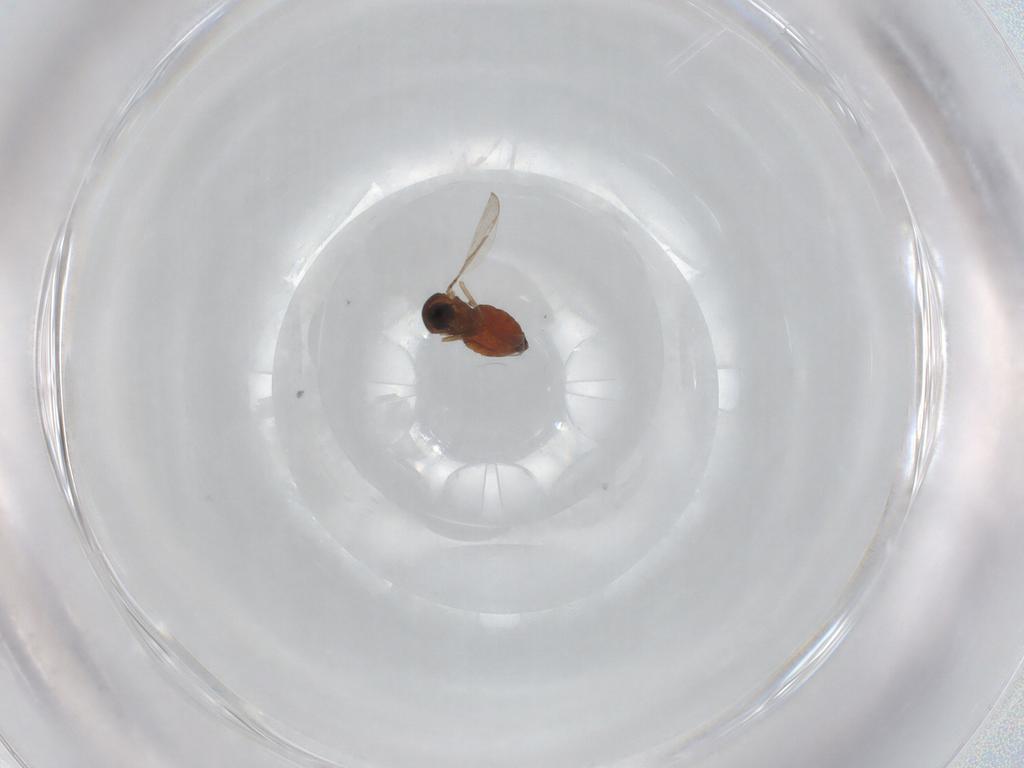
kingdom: Animalia
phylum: Arthropoda
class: Insecta
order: Diptera
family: Ceratopogonidae
